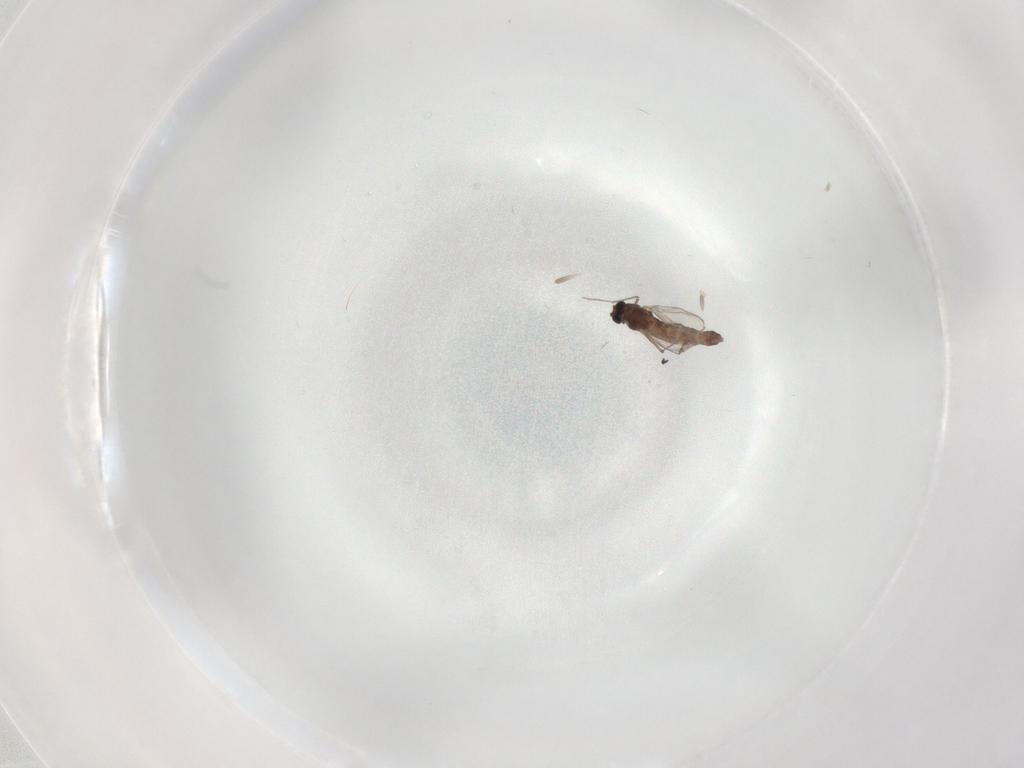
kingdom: Animalia
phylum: Arthropoda
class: Insecta
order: Diptera
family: Chironomidae
